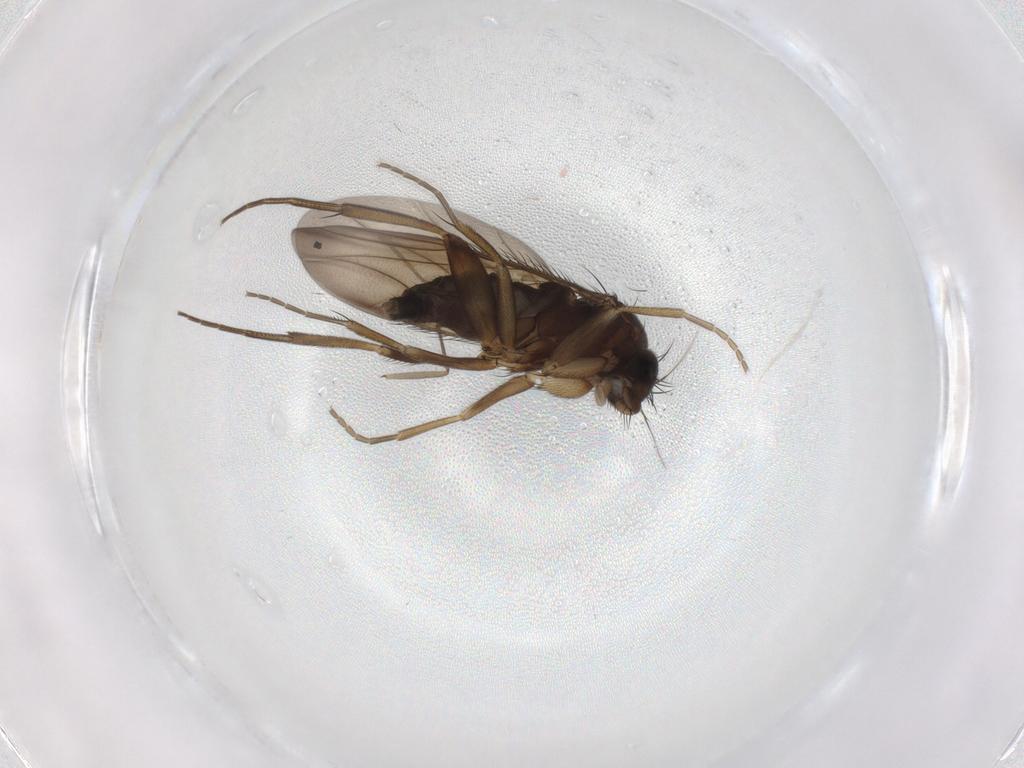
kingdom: Animalia
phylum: Arthropoda
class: Insecta
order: Diptera
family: Phoridae
